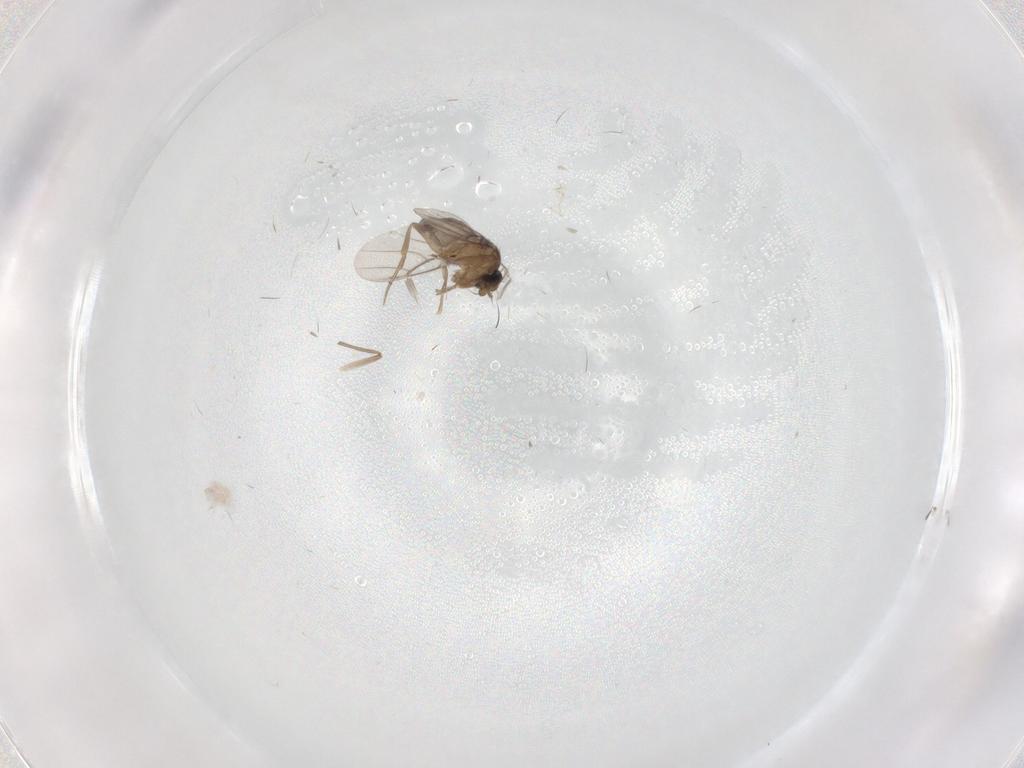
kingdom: Animalia
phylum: Arthropoda
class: Insecta
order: Diptera
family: Phoridae
